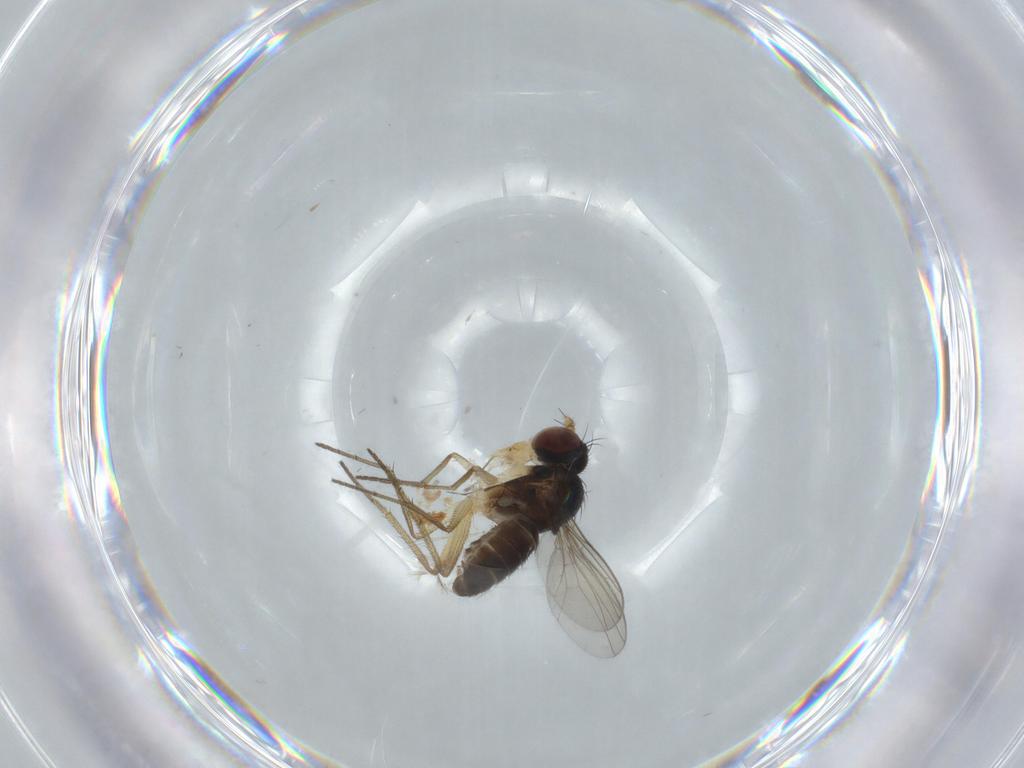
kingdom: Animalia
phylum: Arthropoda
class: Insecta
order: Diptera
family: Dolichopodidae
